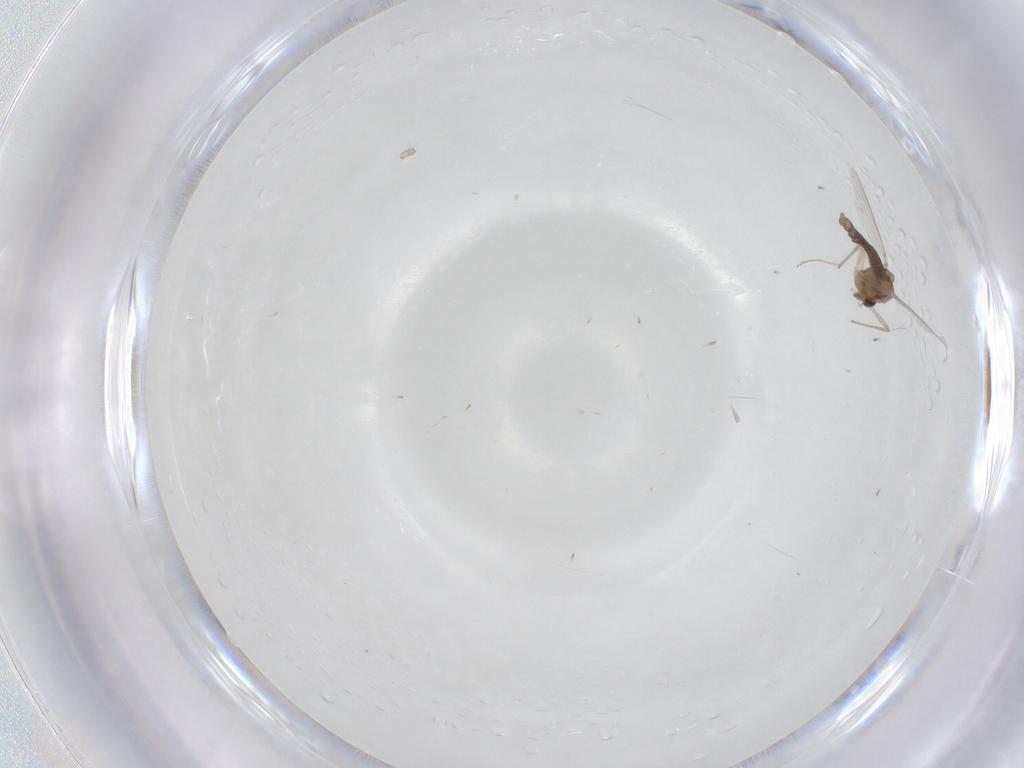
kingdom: Animalia
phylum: Arthropoda
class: Insecta
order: Diptera
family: Chironomidae
